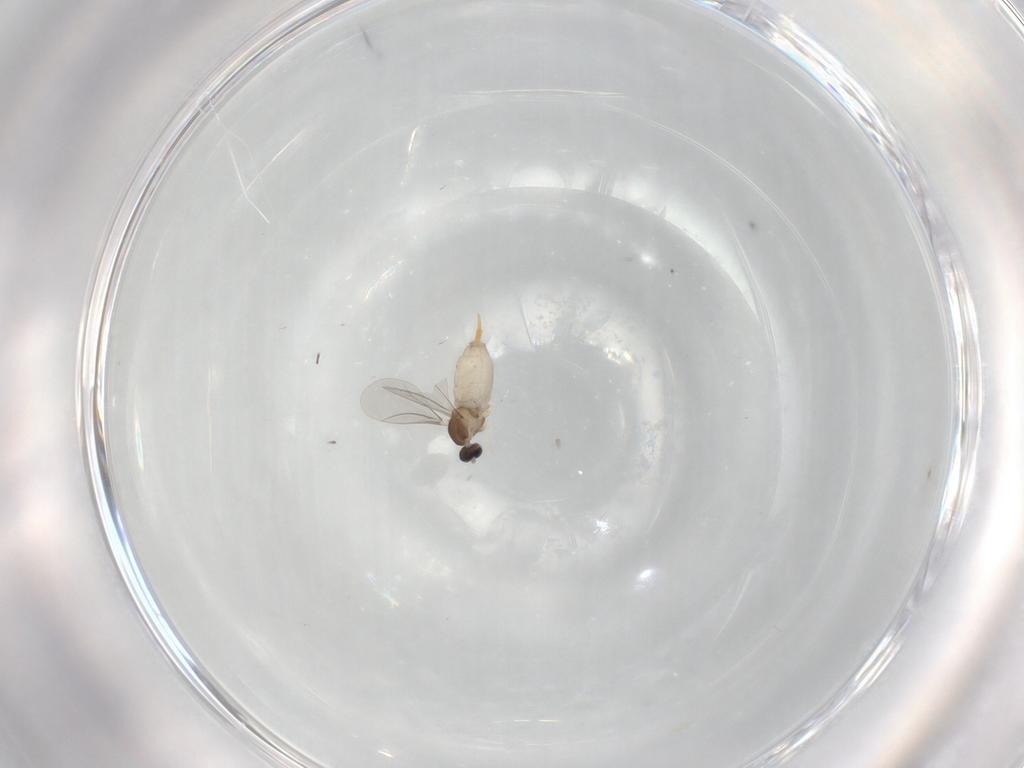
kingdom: Animalia
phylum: Arthropoda
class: Insecta
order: Diptera
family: Cecidomyiidae
